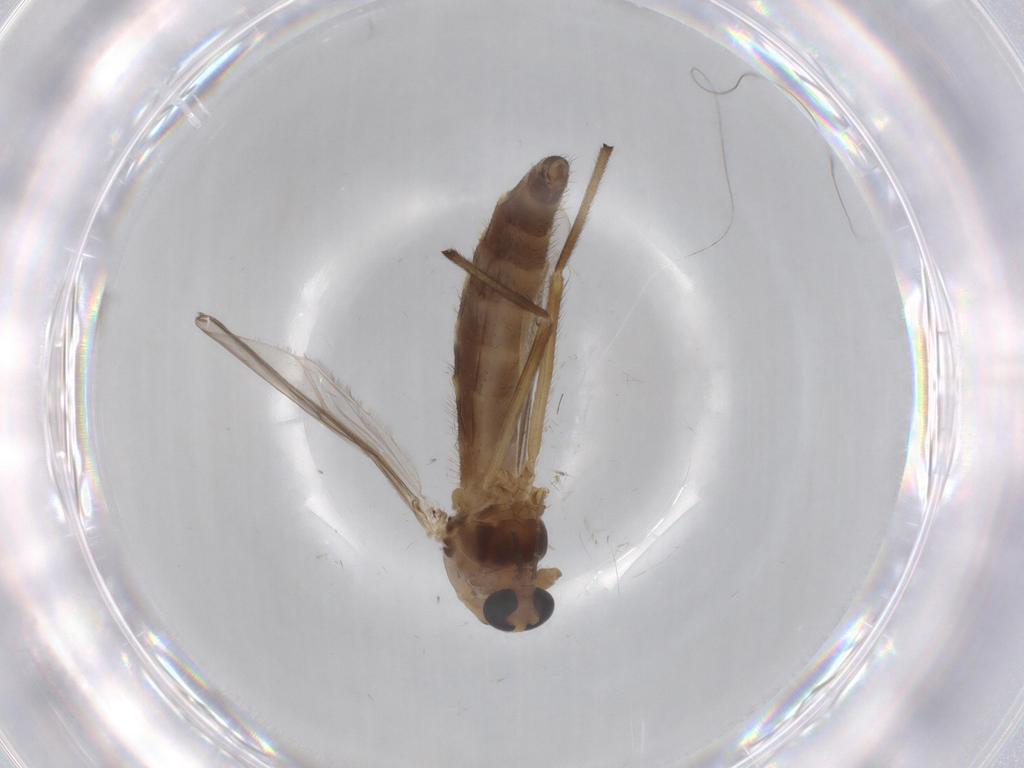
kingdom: Animalia
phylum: Arthropoda
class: Insecta
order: Diptera
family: Chironomidae
